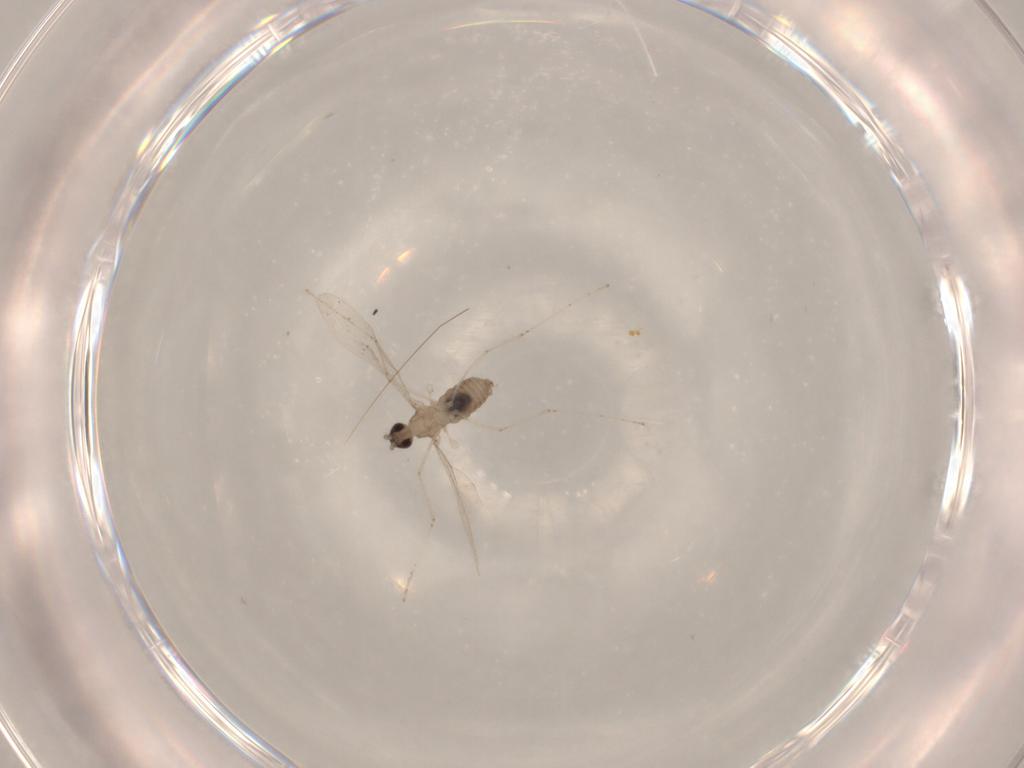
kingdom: Animalia
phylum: Arthropoda
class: Insecta
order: Diptera
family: Cecidomyiidae
